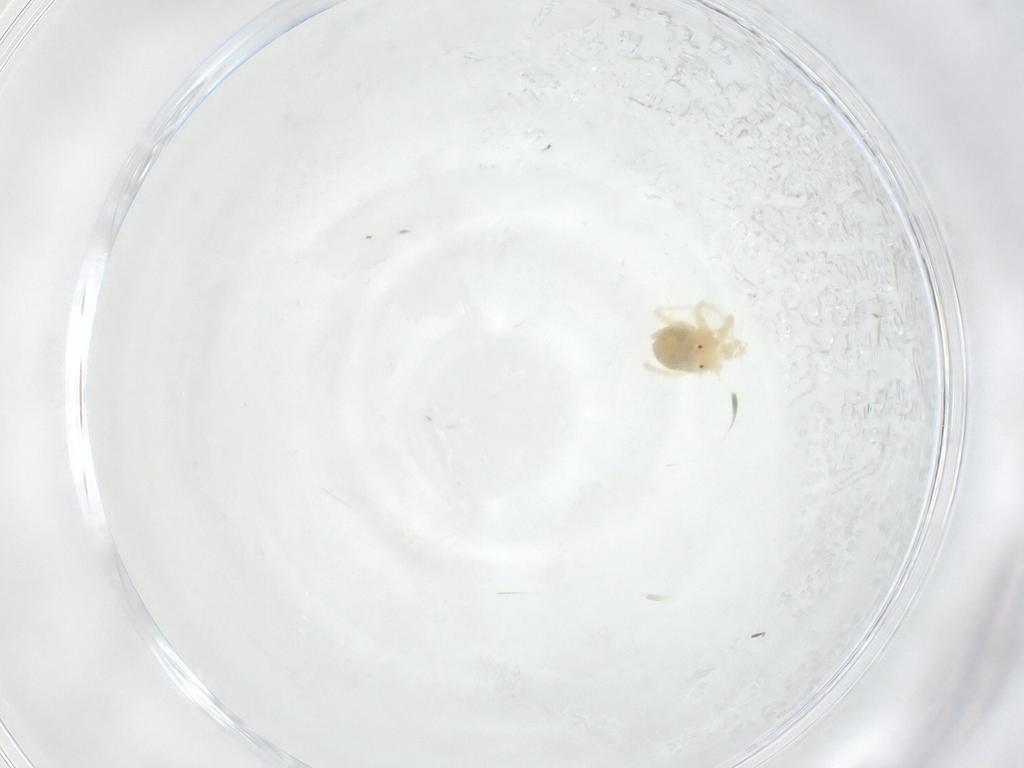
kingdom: Animalia
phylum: Arthropoda
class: Arachnida
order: Trombidiformes
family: Anystidae
